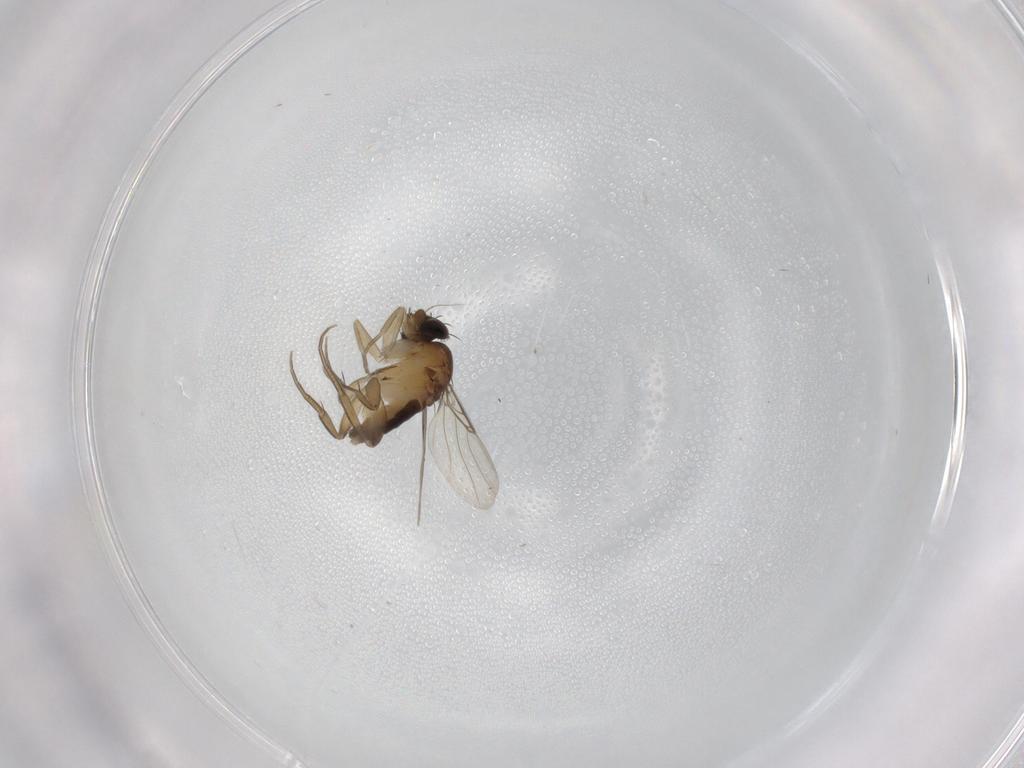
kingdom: Animalia
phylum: Arthropoda
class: Insecta
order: Diptera
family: Phoridae
